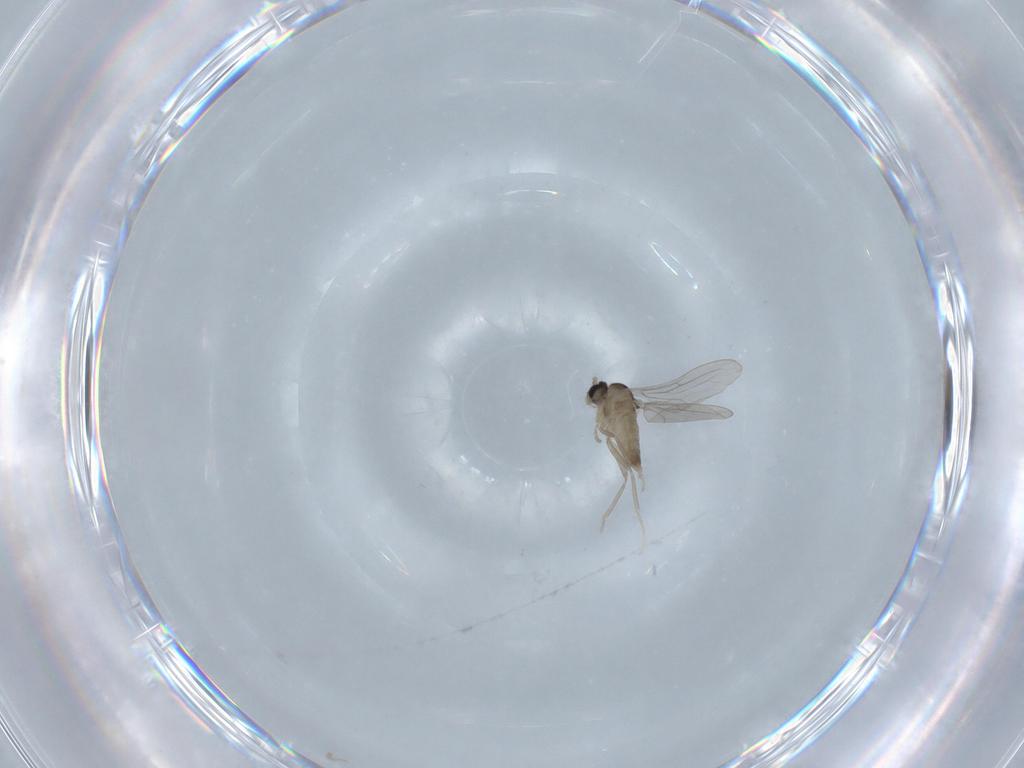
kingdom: Animalia
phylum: Arthropoda
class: Insecta
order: Diptera
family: Cecidomyiidae
